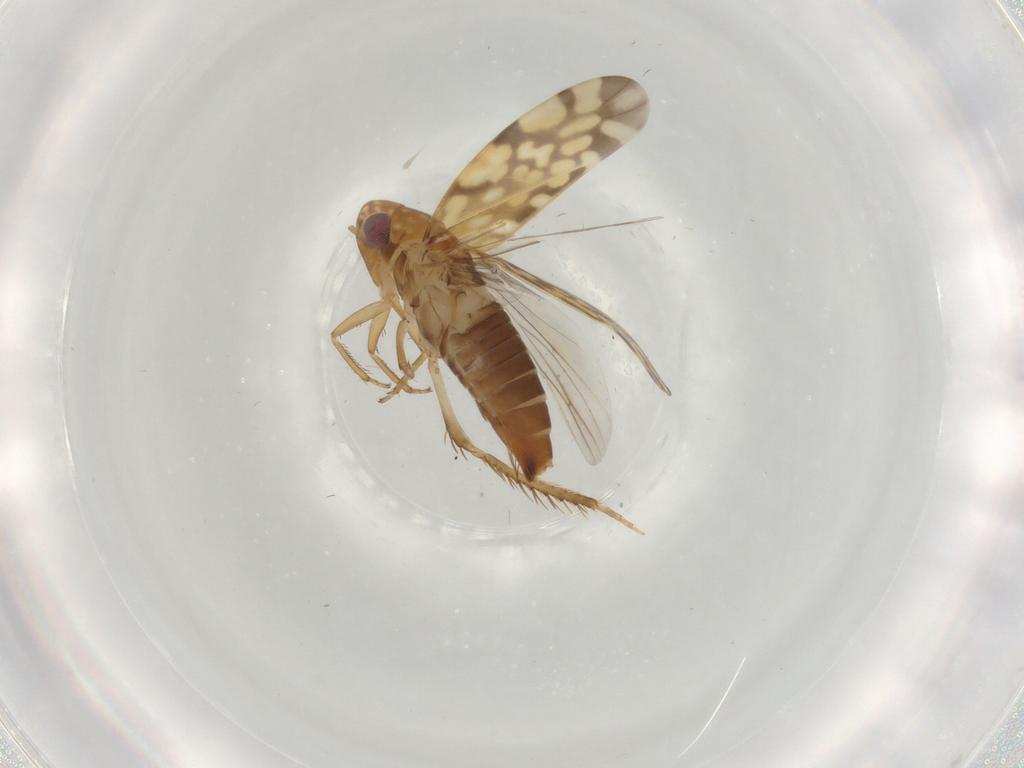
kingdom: Animalia
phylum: Arthropoda
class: Insecta
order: Hemiptera
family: Cicadellidae
